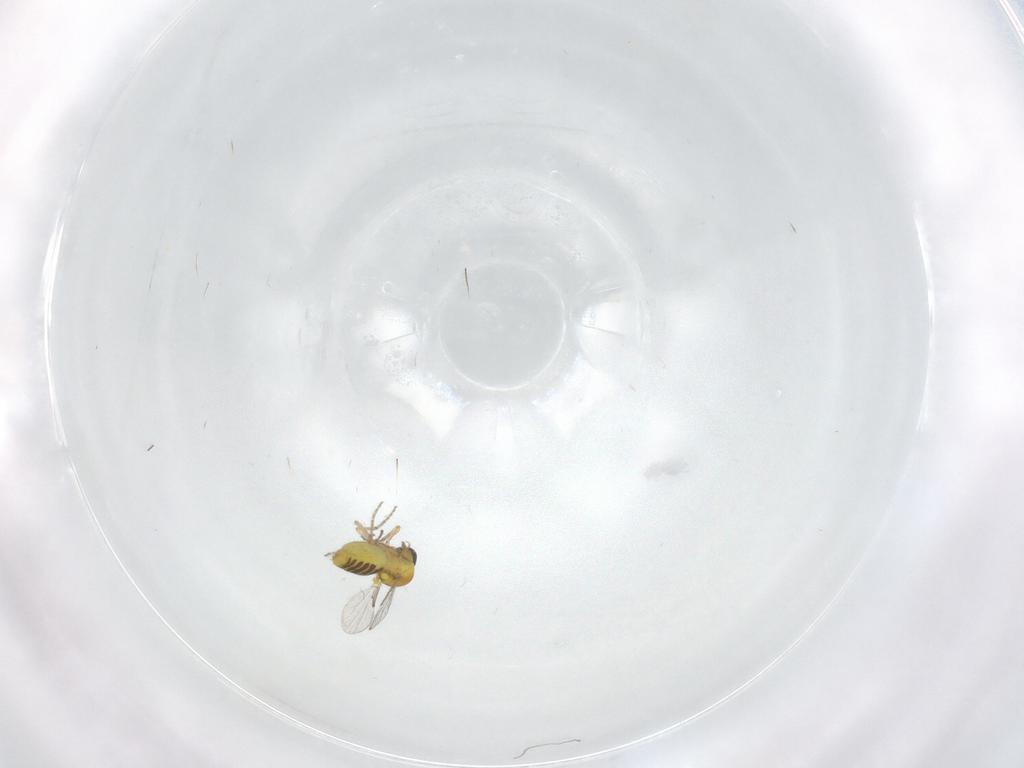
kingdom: Animalia
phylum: Arthropoda
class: Insecta
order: Diptera
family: Ceratopogonidae
